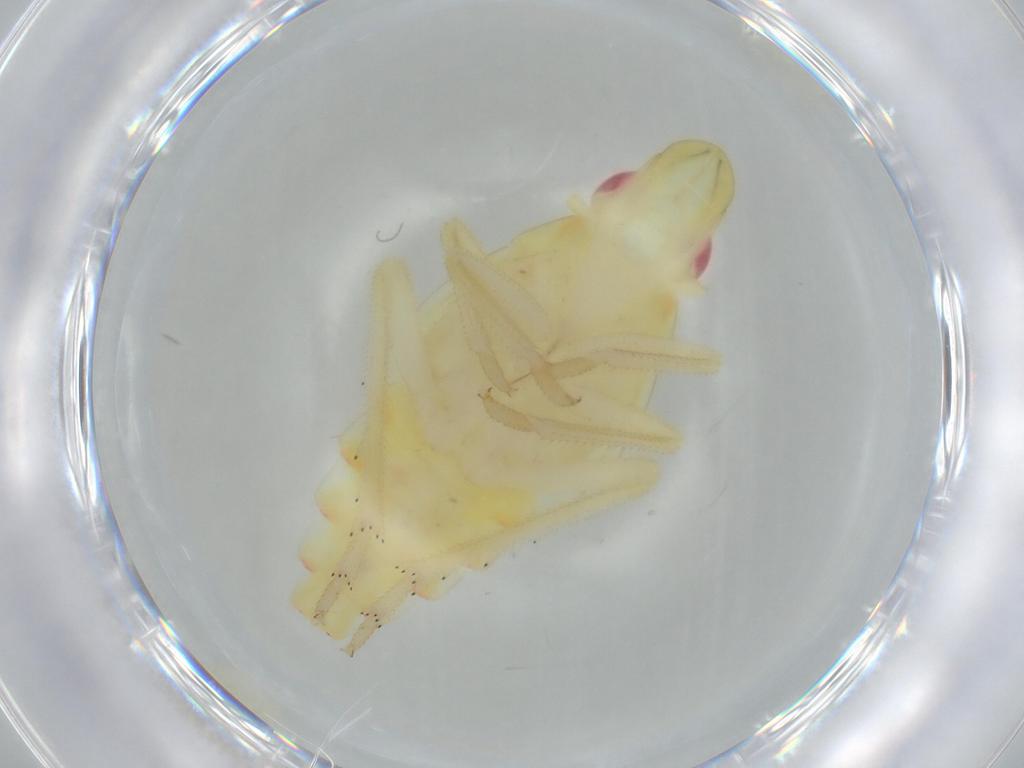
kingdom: Animalia
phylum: Arthropoda
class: Insecta
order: Hemiptera
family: Tropiduchidae
